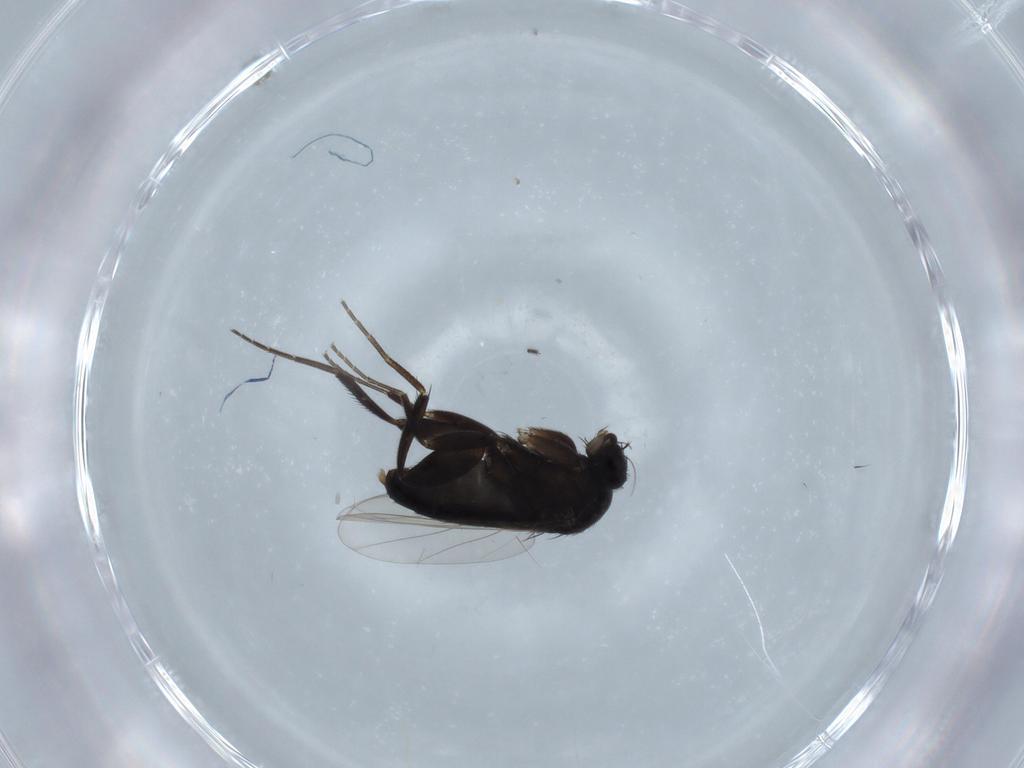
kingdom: Animalia
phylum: Arthropoda
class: Insecta
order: Diptera
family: Phoridae
